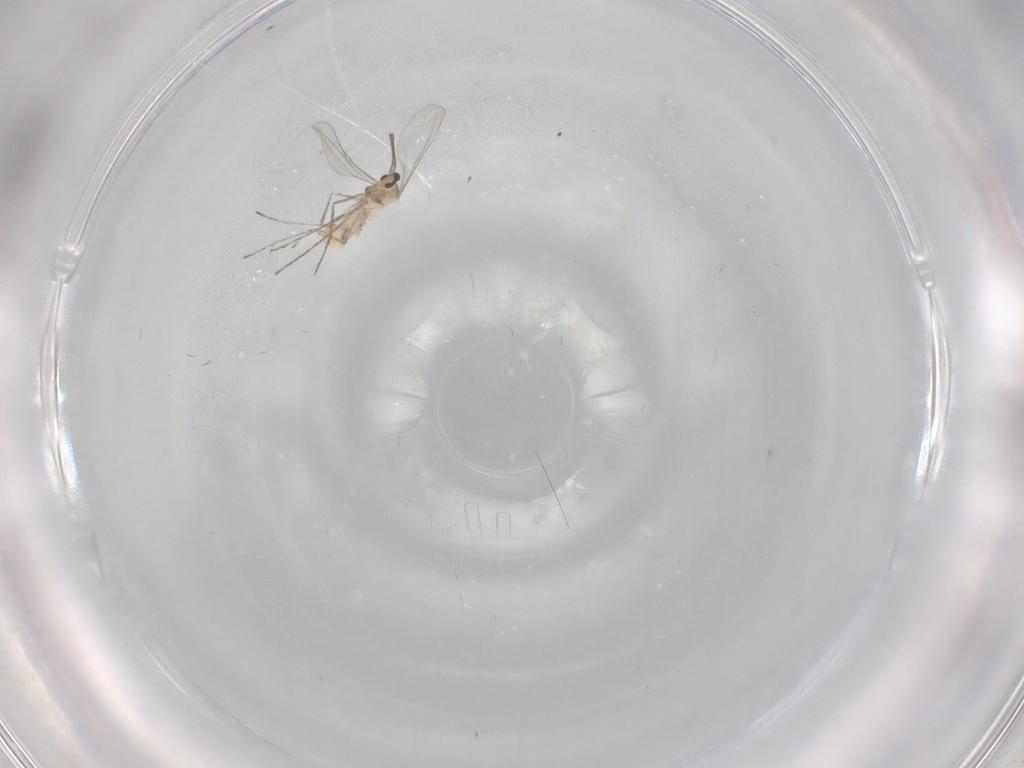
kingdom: Animalia
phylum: Arthropoda
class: Insecta
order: Diptera
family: Cecidomyiidae
